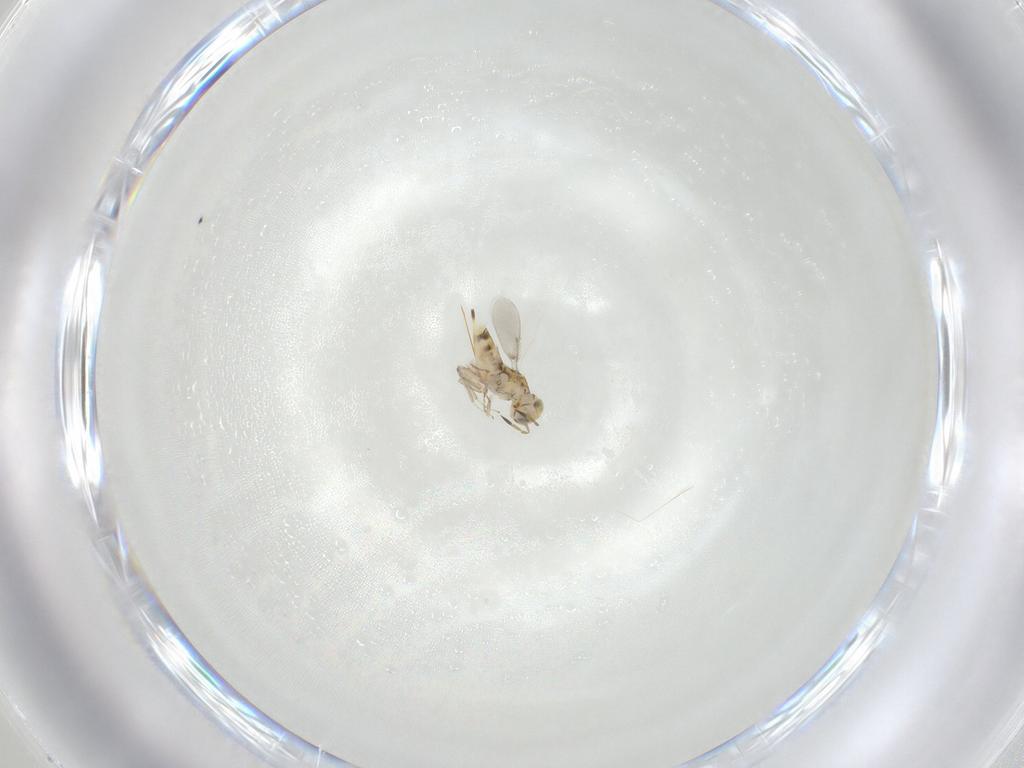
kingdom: Animalia
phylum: Arthropoda
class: Insecta
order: Hymenoptera
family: Aphelinidae
